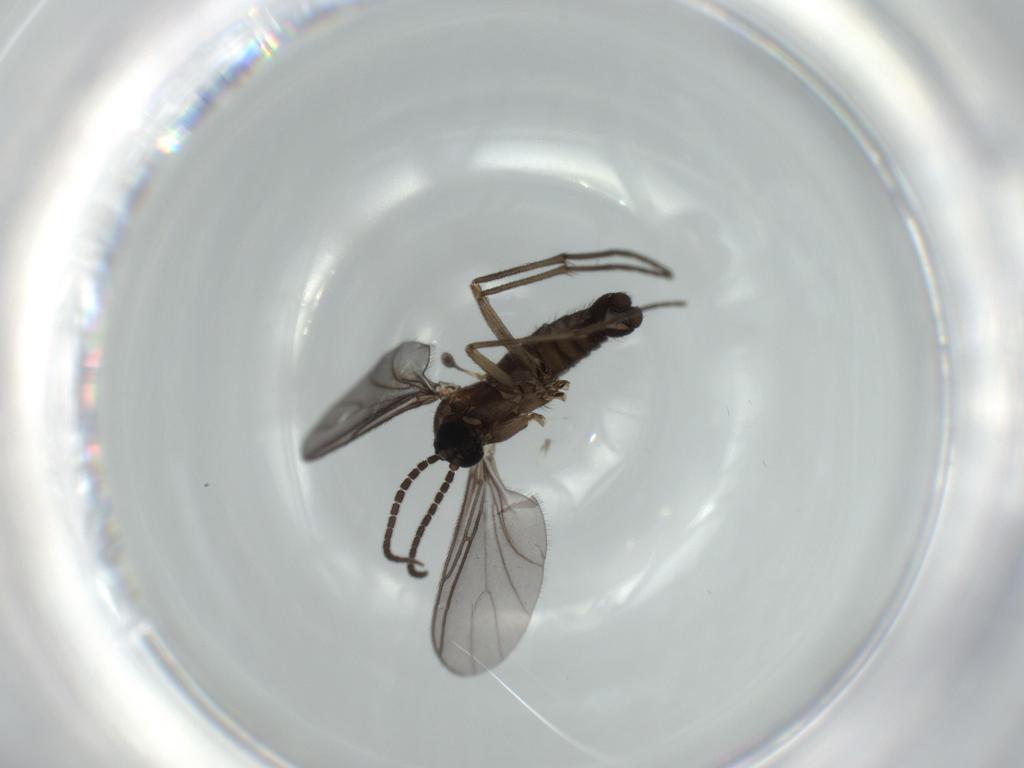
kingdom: Animalia
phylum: Arthropoda
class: Insecta
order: Diptera
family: Sciaridae
